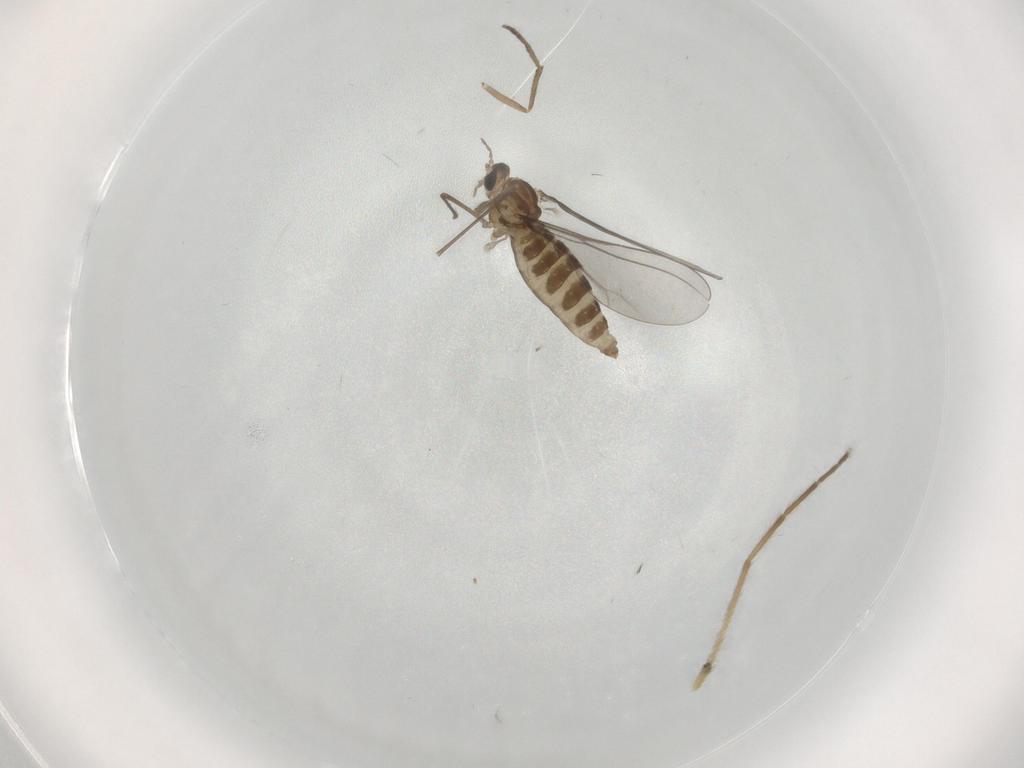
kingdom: Animalia
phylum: Arthropoda
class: Insecta
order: Diptera
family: Cecidomyiidae
